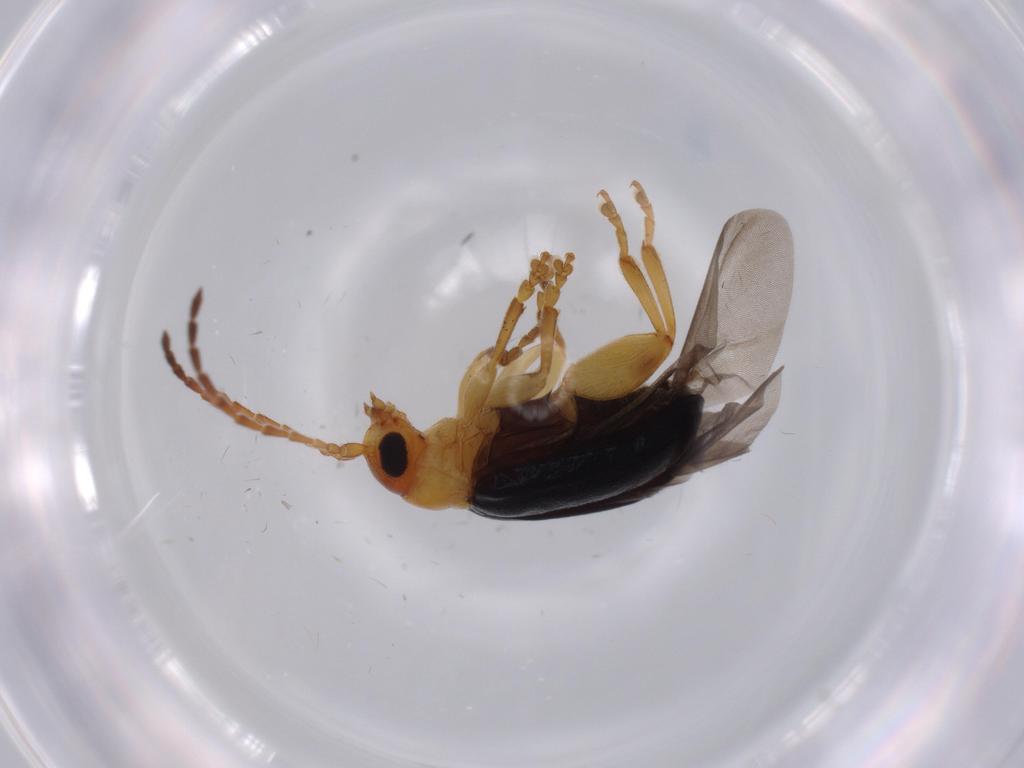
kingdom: Animalia
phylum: Arthropoda
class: Insecta
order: Coleoptera
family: Chrysomelidae
